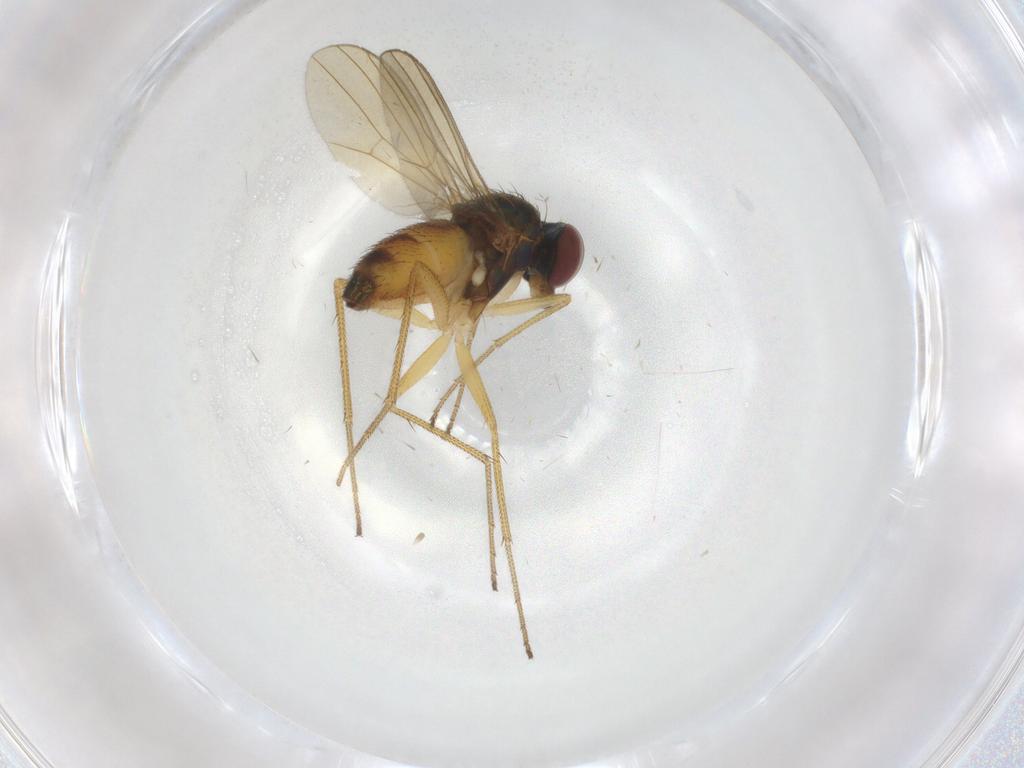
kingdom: Animalia
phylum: Arthropoda
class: Insecta
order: Diptera
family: Dolichopodidae
